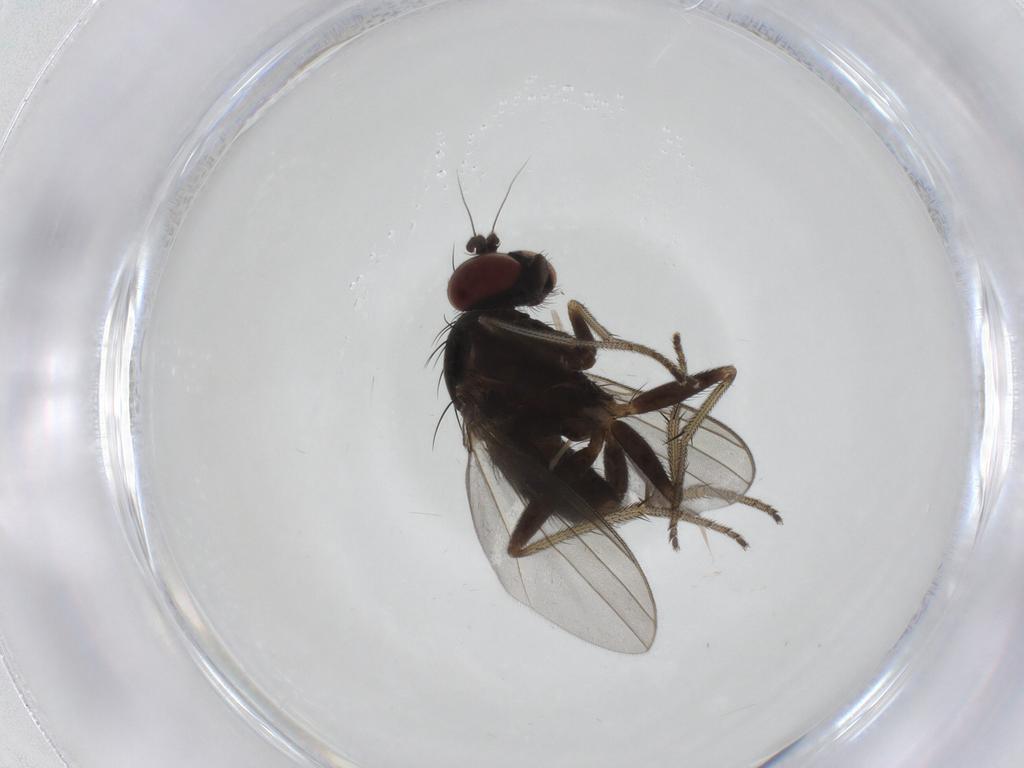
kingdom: Animalia
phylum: Arthropoda
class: Insecta
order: Diptera
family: Dolichopodidae
